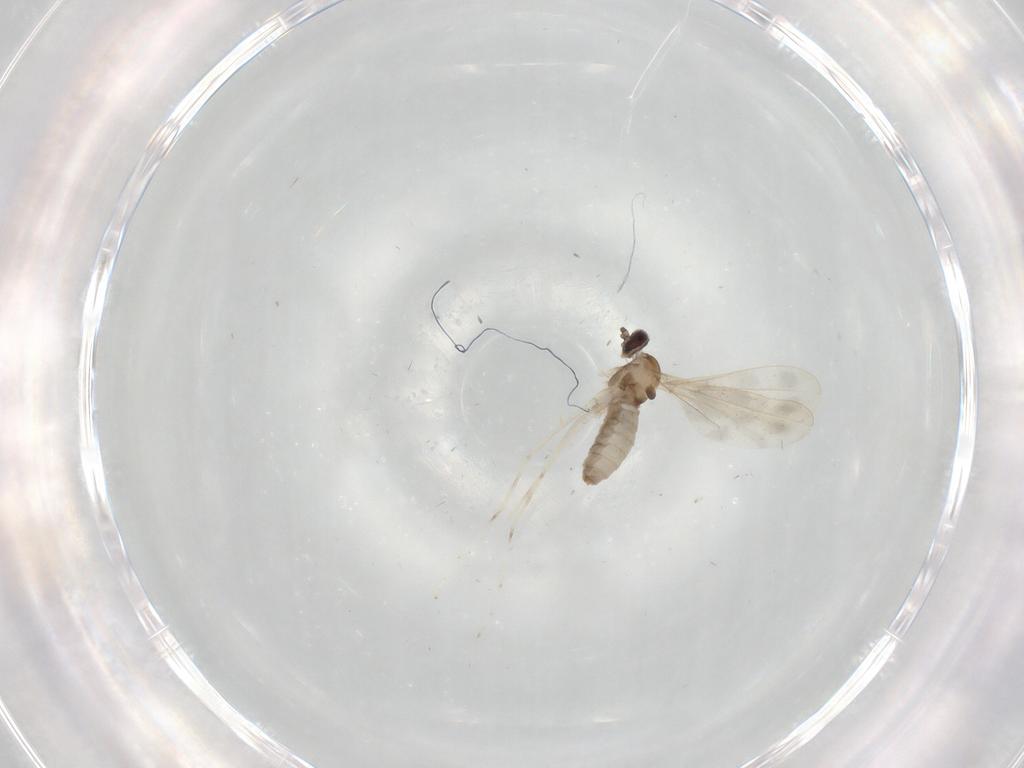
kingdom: Animalia
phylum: Arthropoda
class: Insecta
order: Diptera
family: Cecidomyiidae
